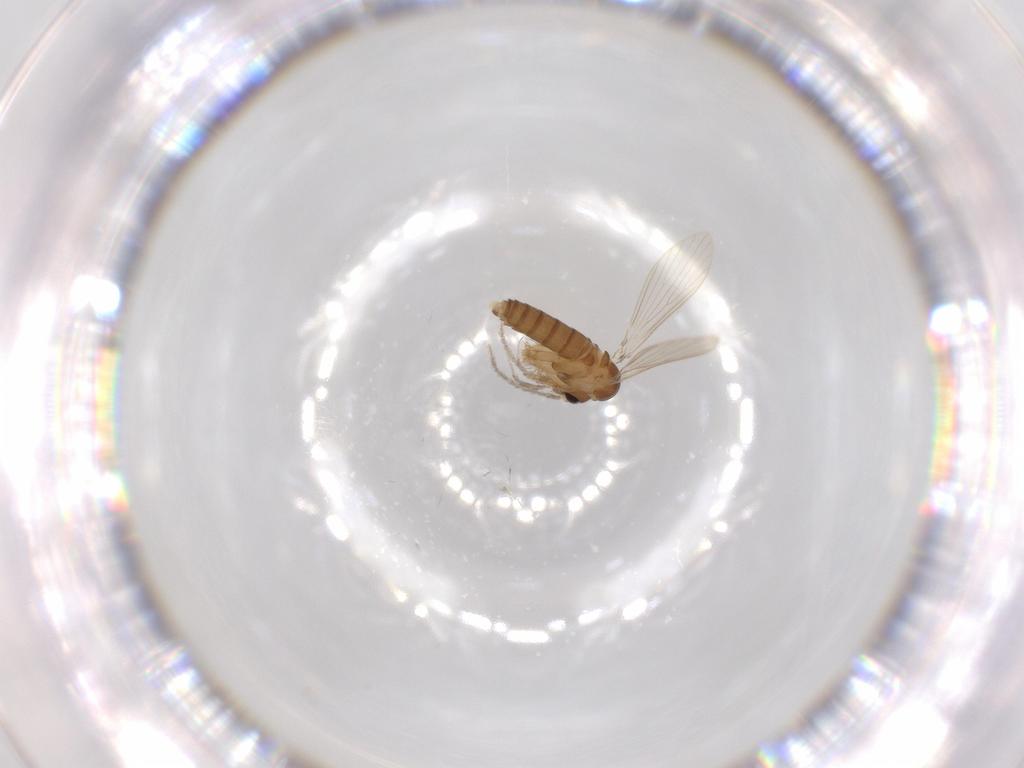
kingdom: Animalia
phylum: Arthropoda
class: Insecta
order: Diptera
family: Psychodidae
